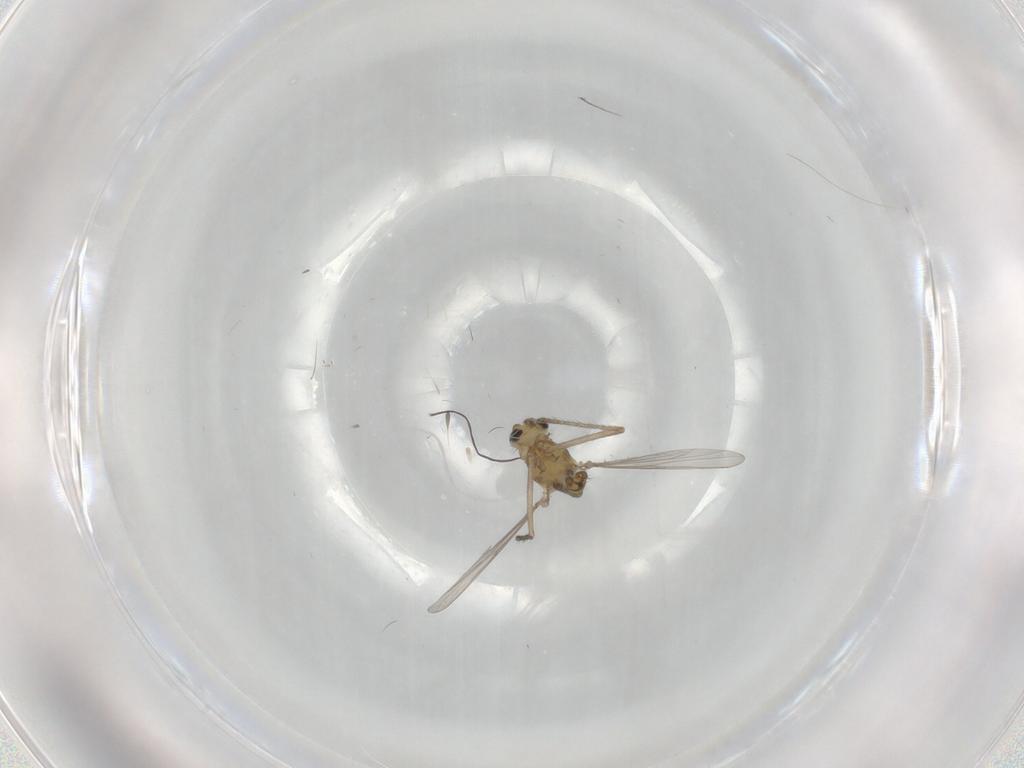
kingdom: Animalia
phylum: Arthropoda
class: Insecta
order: Diptera
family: Chironomidae
